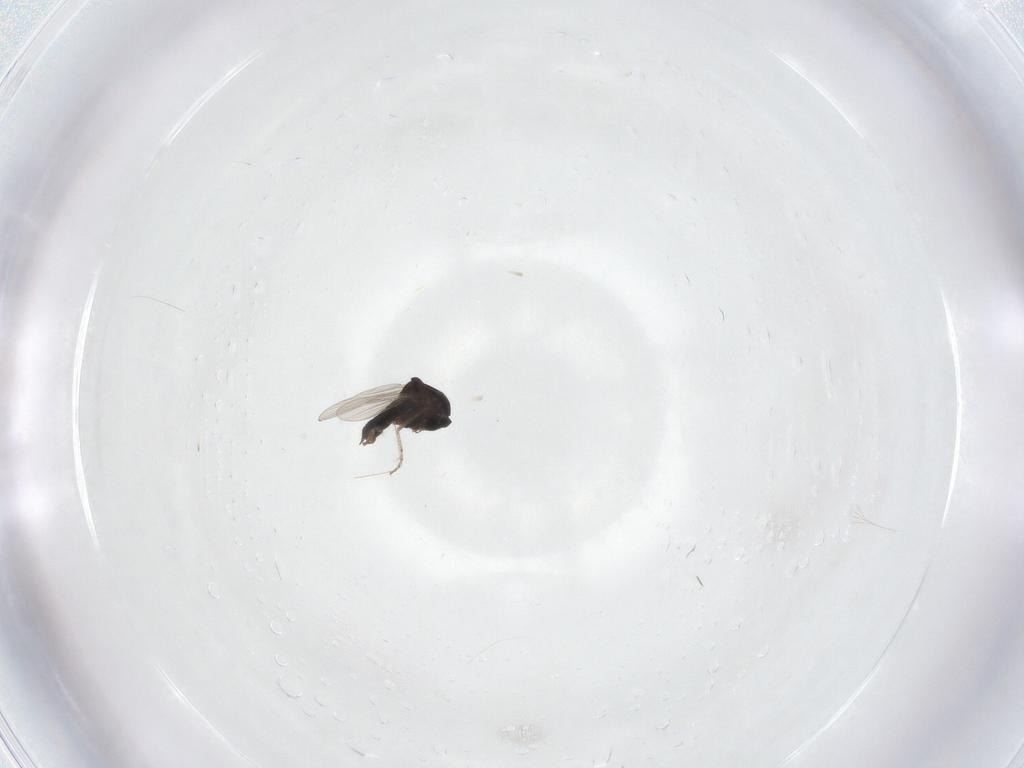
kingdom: Animalia
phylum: Arthropoda
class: Insecta
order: Diptera
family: Ceratopogonidae
